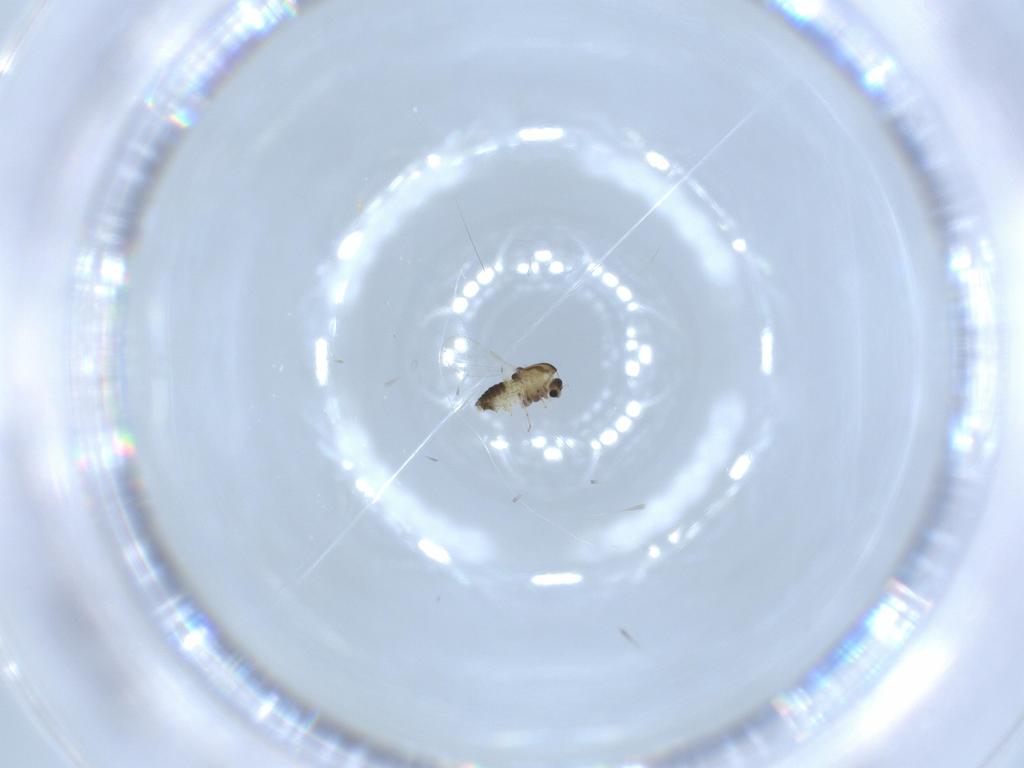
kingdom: Animalia
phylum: Arthropoda
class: Insecta
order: Diptera
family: Chironomidae
